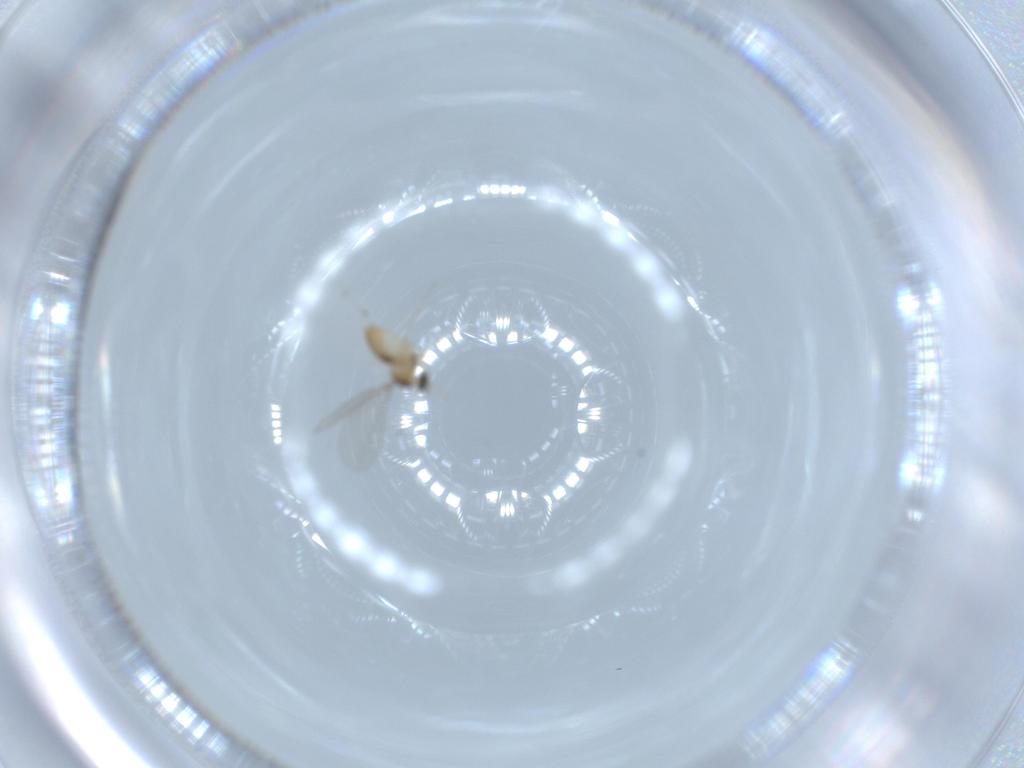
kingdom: Animalia
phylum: Arthropoda
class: Insecta
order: Diptera
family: Cecidomyiidae
